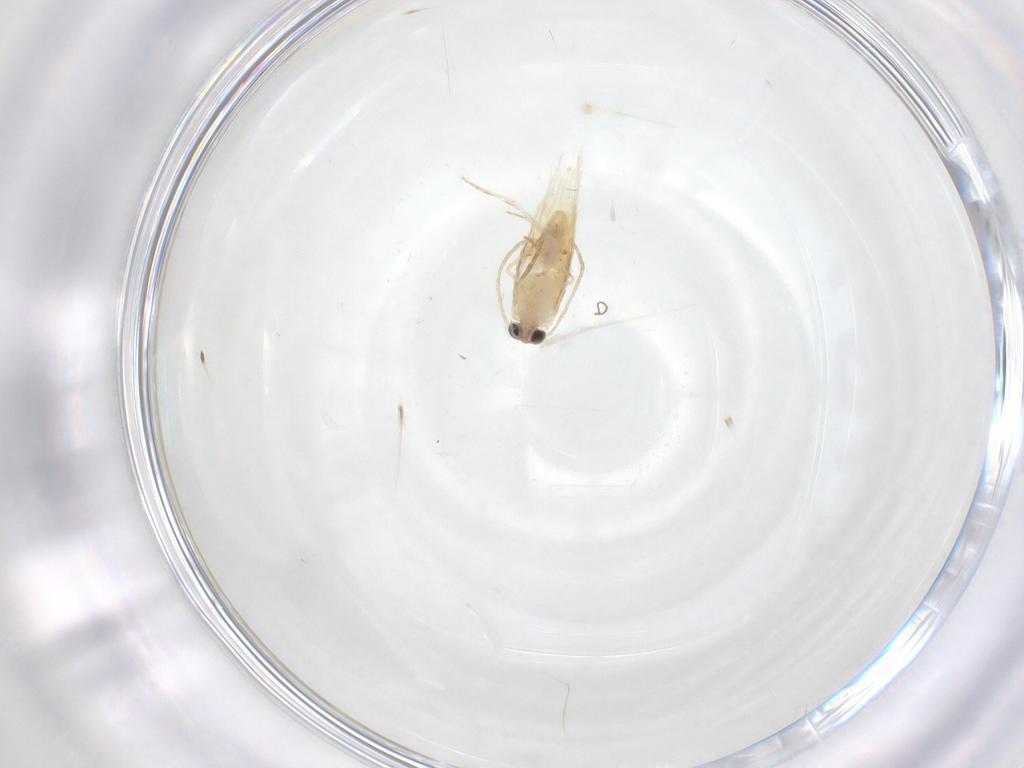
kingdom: Animalia
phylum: Arthropoda
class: Insecta
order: Lepidoptera
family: Nepticulidae
